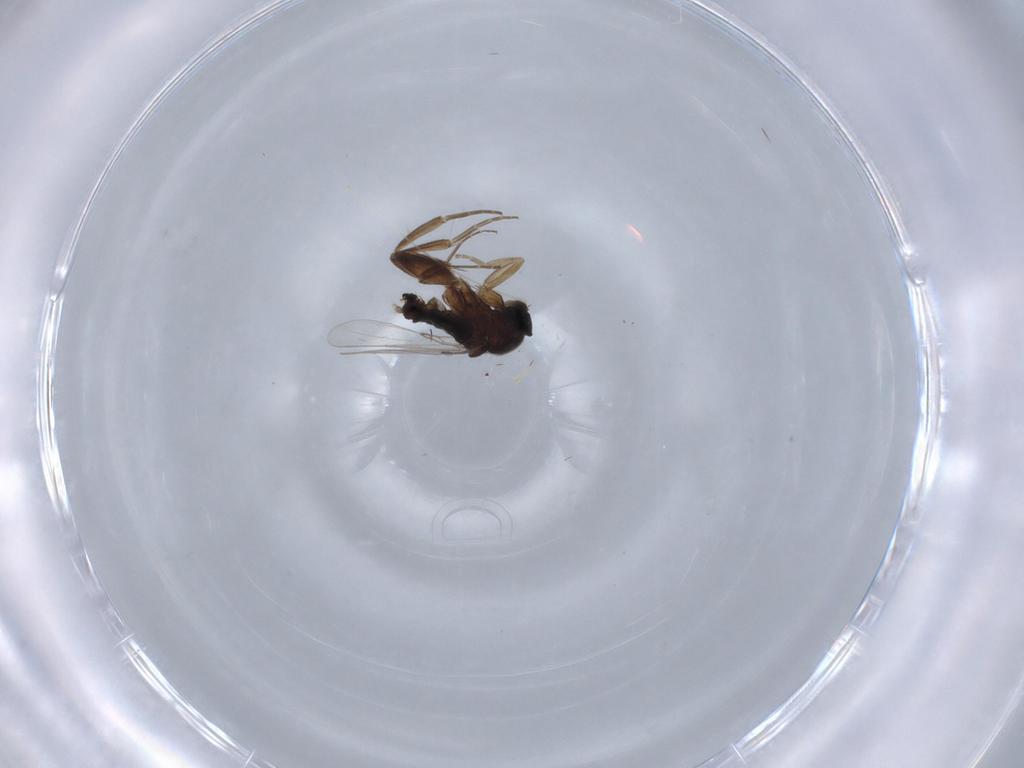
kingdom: Animalia
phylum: Arthropoda
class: Insecta
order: Diptera
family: Phoridae
